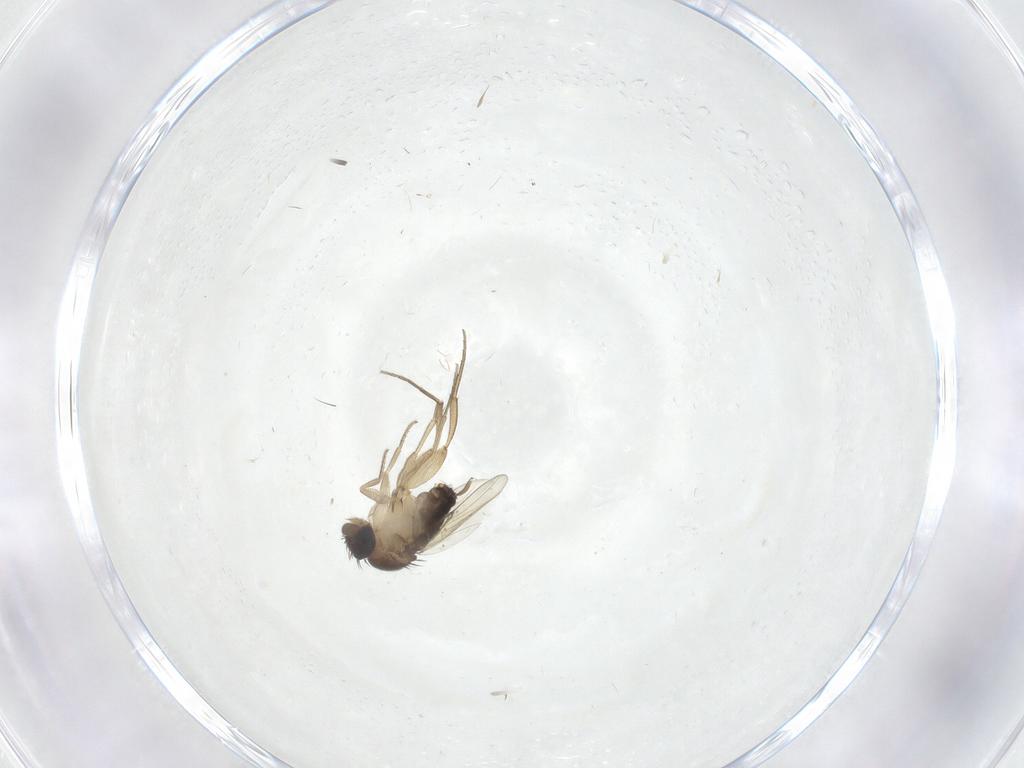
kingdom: Animalia
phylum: Arthropoda
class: Insecta
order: Diptera
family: Phoridae
